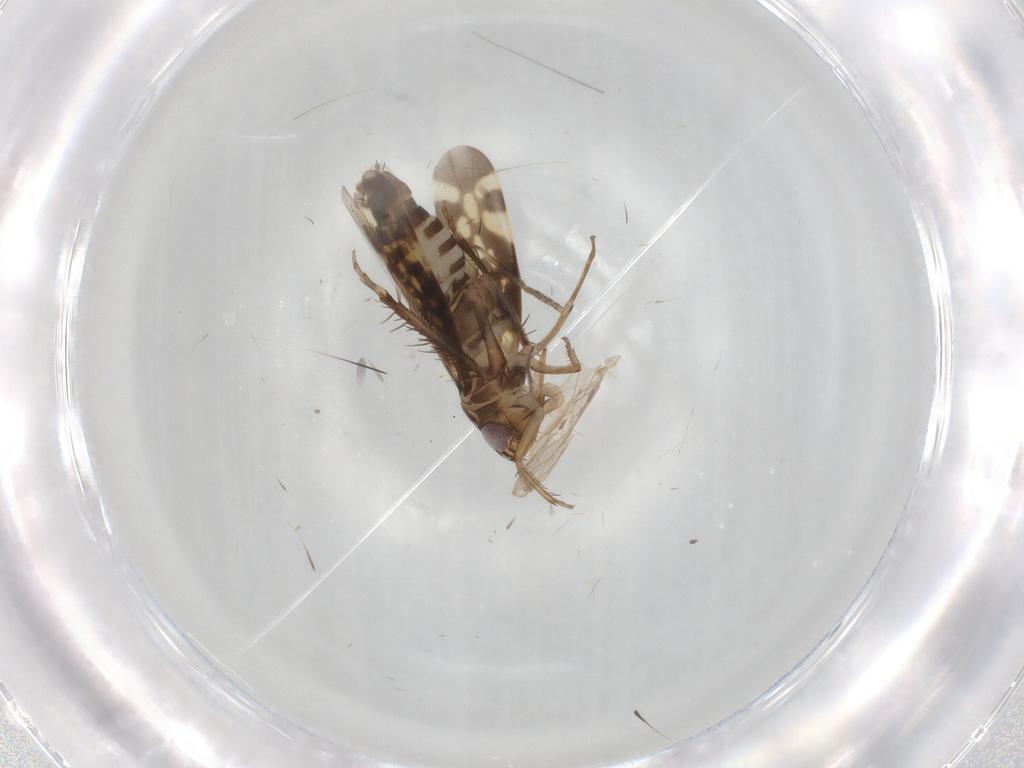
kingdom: Animalia
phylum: Arthropoda
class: Insecta
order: Hemiptera
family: Cicadellidae
